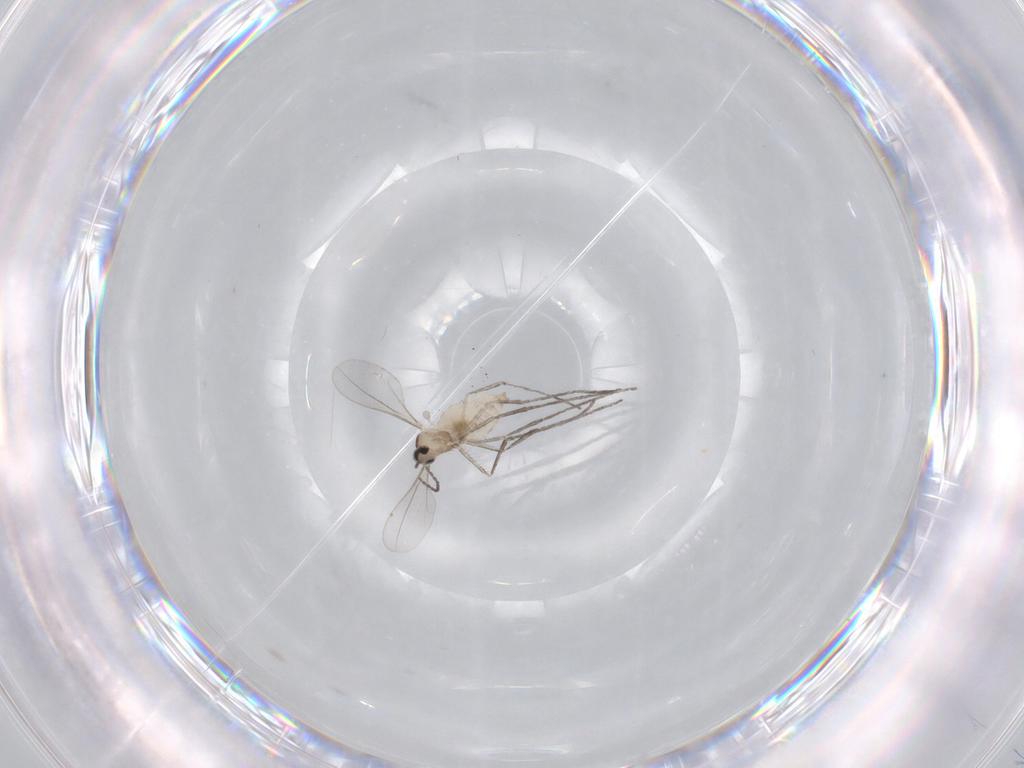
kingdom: Animalia
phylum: Arthropoda
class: Insecta
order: Diptera
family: Cecidomyiidae
